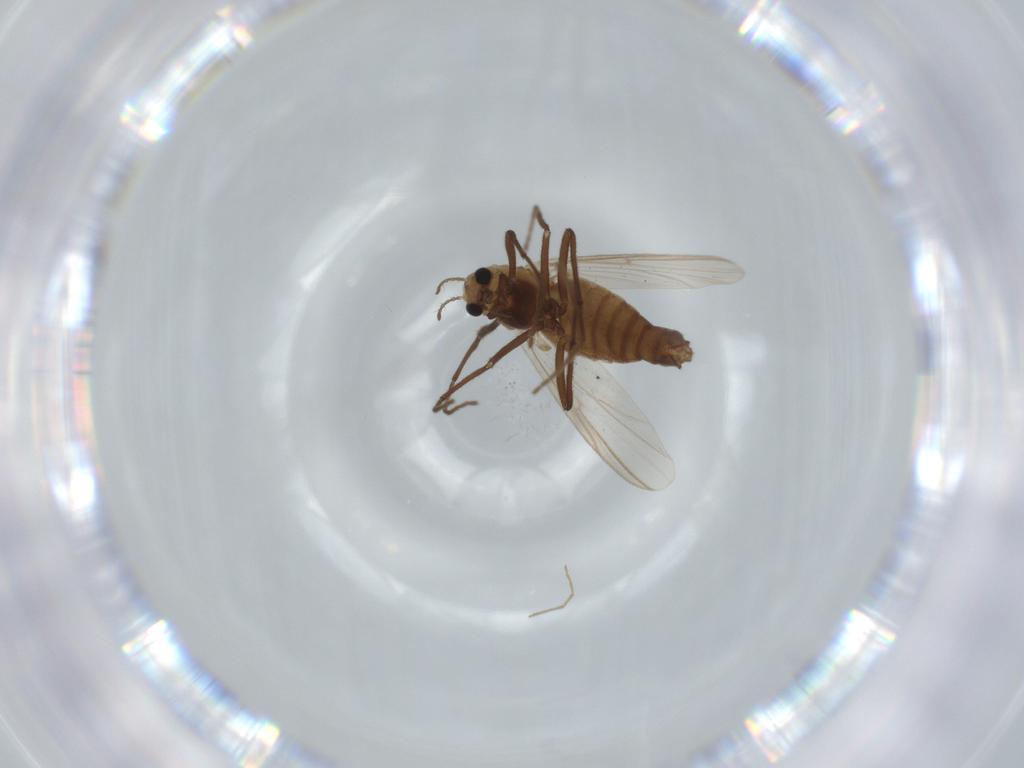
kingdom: Animalia
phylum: Arthropoda
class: Insecta
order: Diptera
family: Chironomidae
